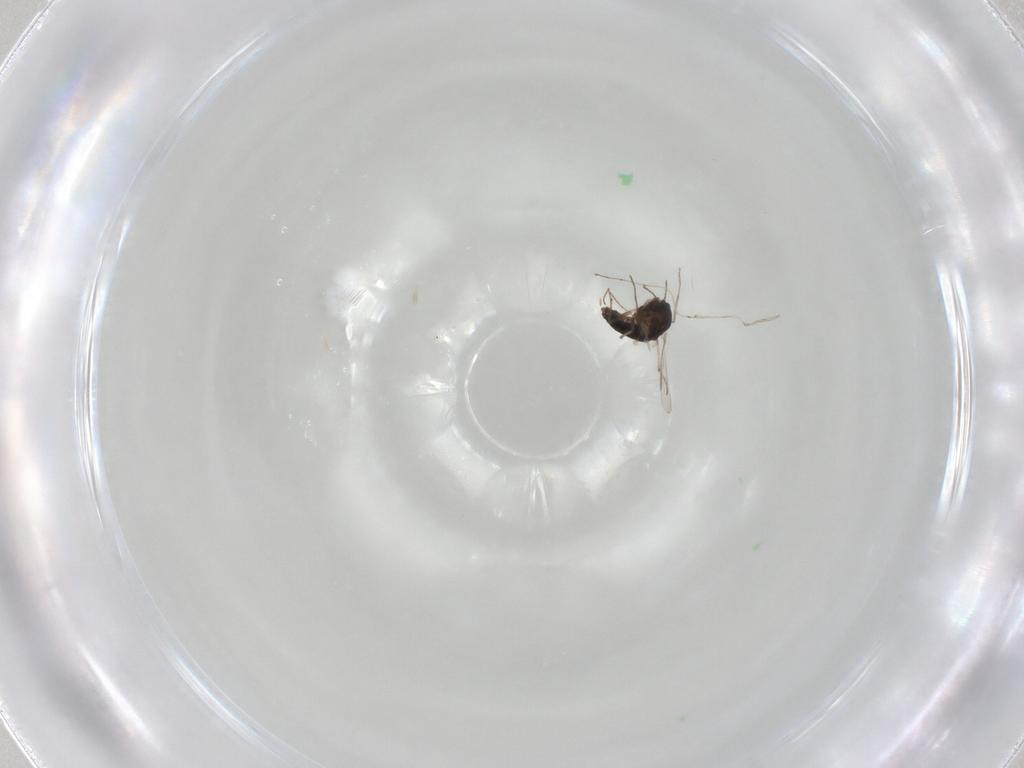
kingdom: Animalia
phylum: Arthropoda
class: Insecta
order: Diptera
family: Chironomidae
